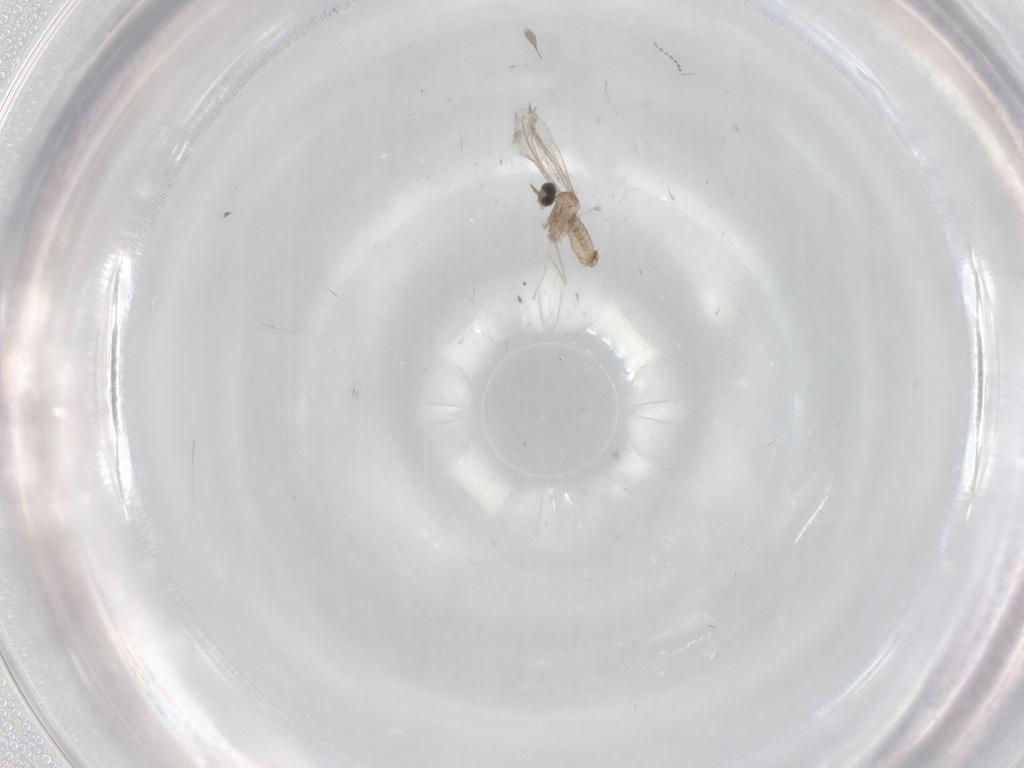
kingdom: Animalia
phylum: Arthropoda
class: Insecta
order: Diptera
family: Cecidomyiidae
